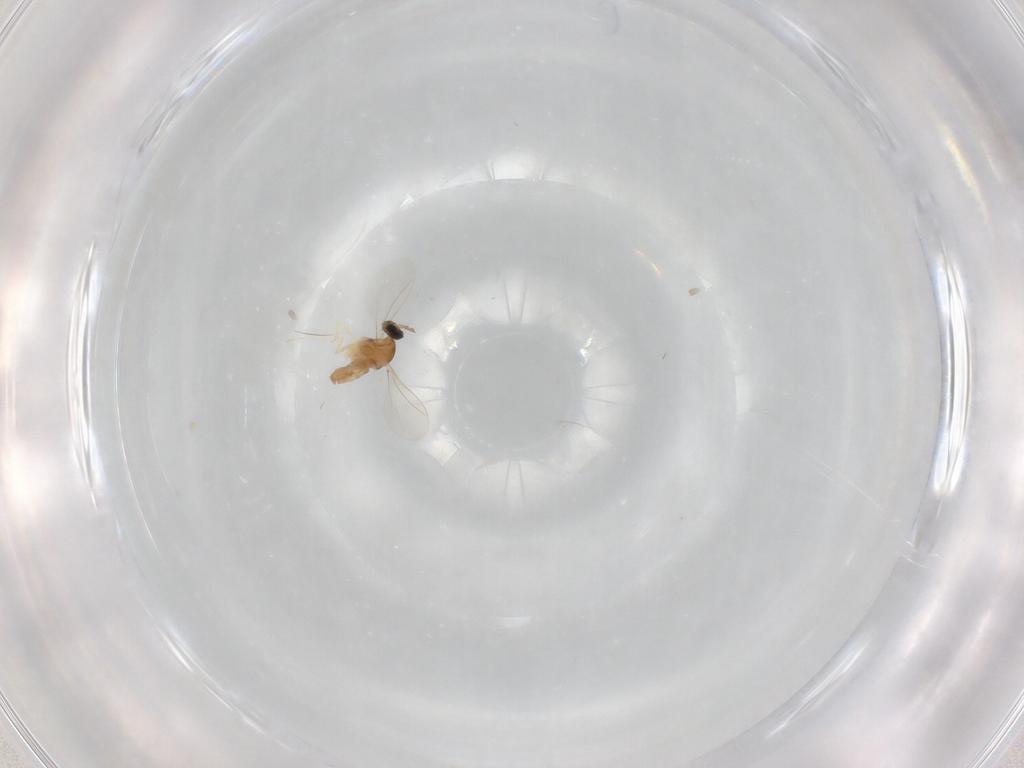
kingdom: Animalia
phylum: Arthropoda
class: Insecta
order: Diptera
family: Cecidomyiidae
